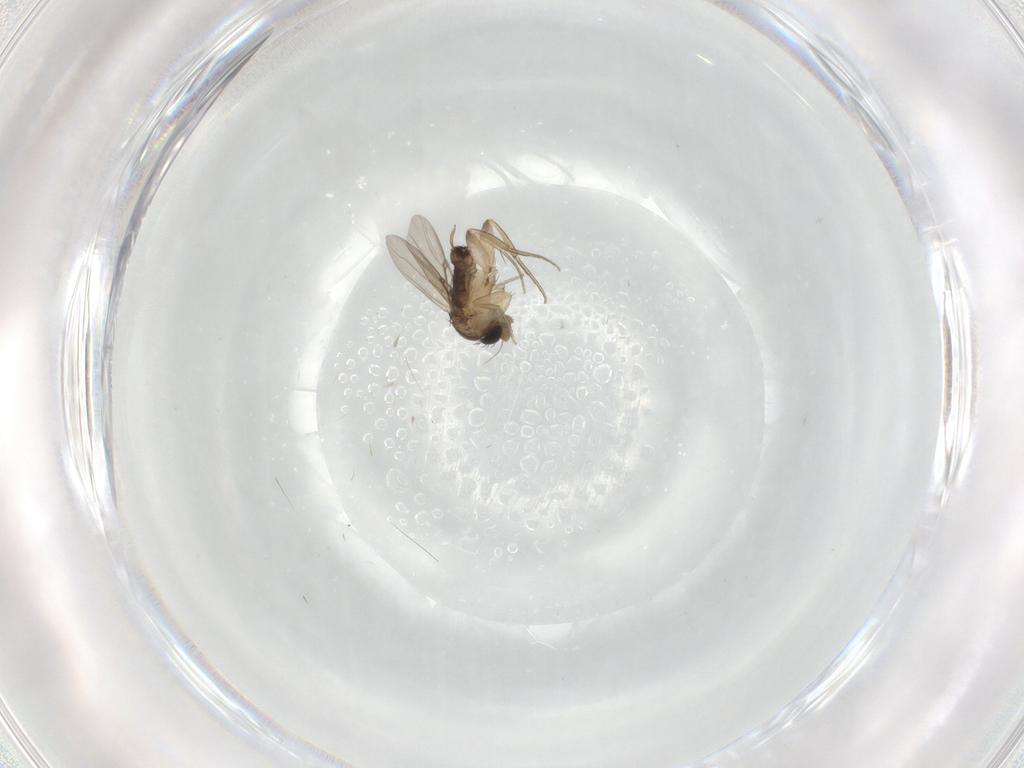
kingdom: Animalia
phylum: Arthropoda
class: Insecta
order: Diptera
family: Phoridae
